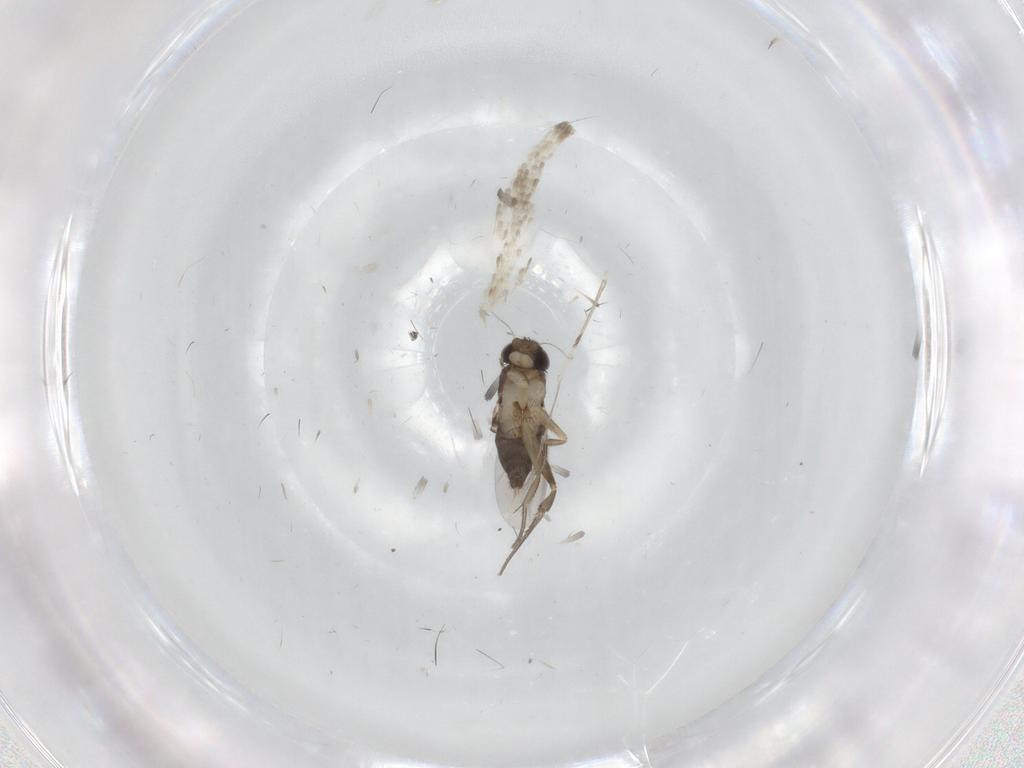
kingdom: Animalia
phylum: Arthropoda
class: Insecta
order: Diptera
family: Phoridae
